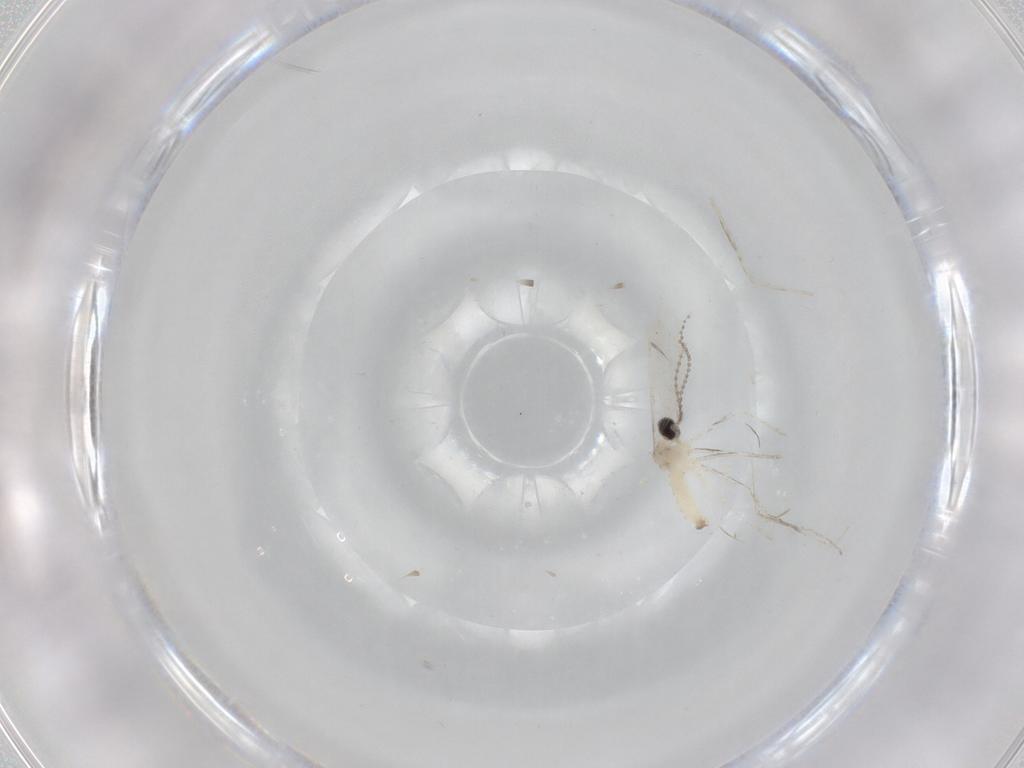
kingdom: Animalia
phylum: Arthropoda
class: Insecta
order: Diptera
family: Cecidomyiidae
